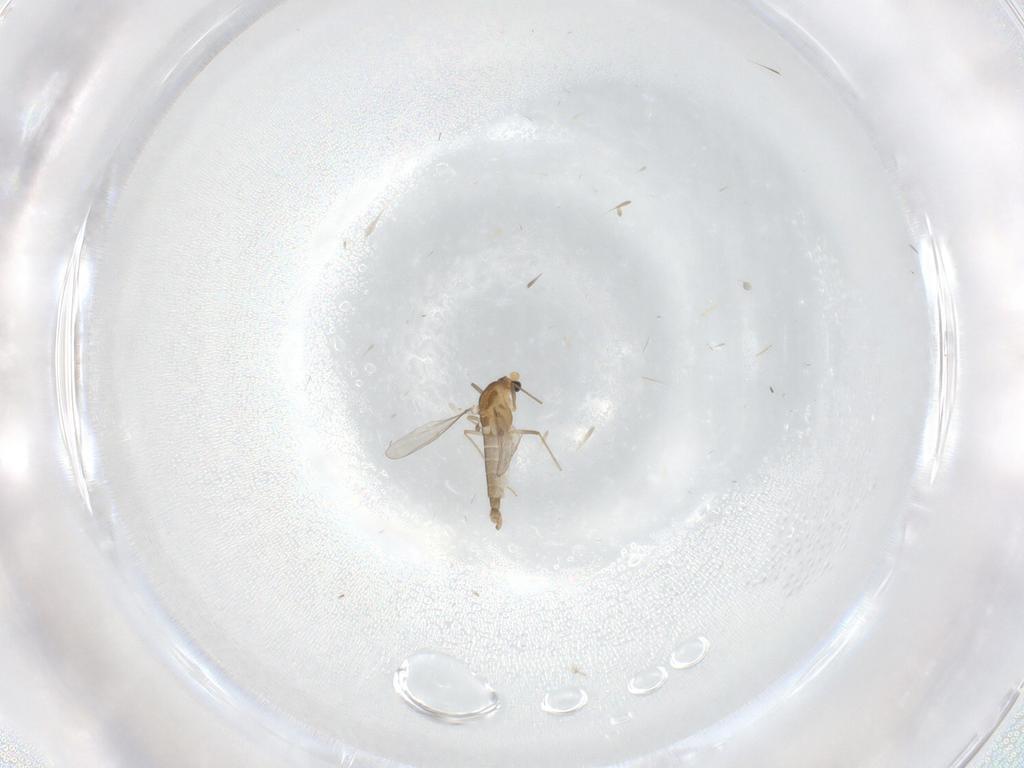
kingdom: Animalia
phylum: Arthropoda
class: Insecta
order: Diptera
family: Chironomidae
